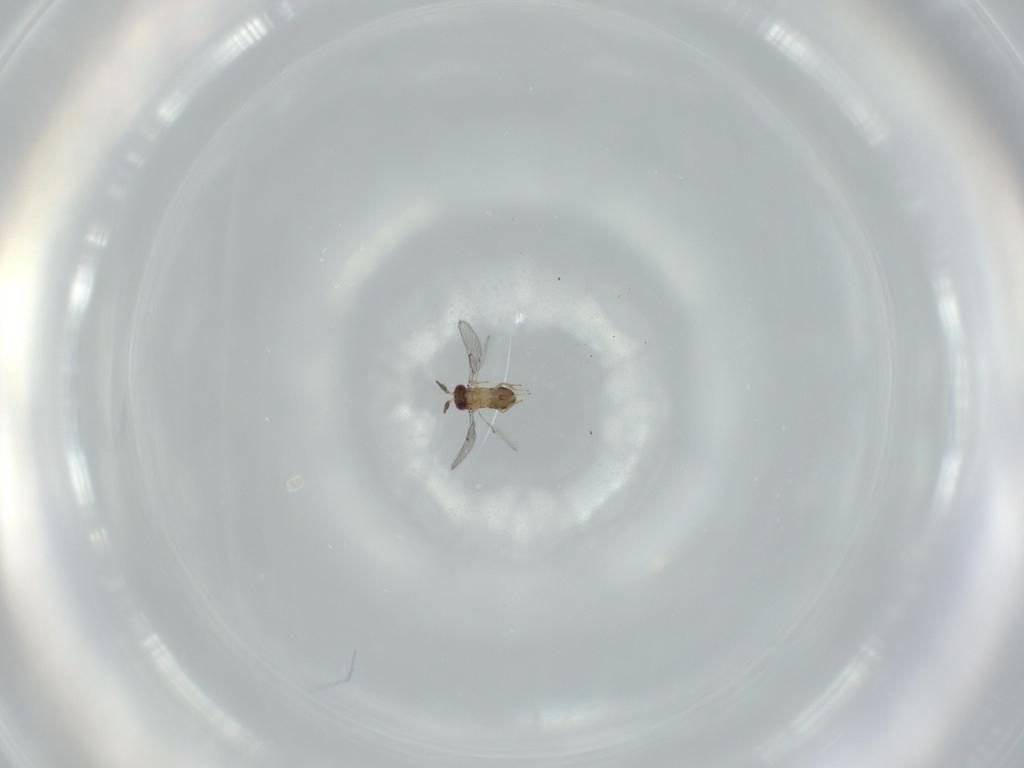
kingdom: Animalia
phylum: Arthropoda
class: Insecta
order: Hymenoptera
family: Trichogrammatidae
